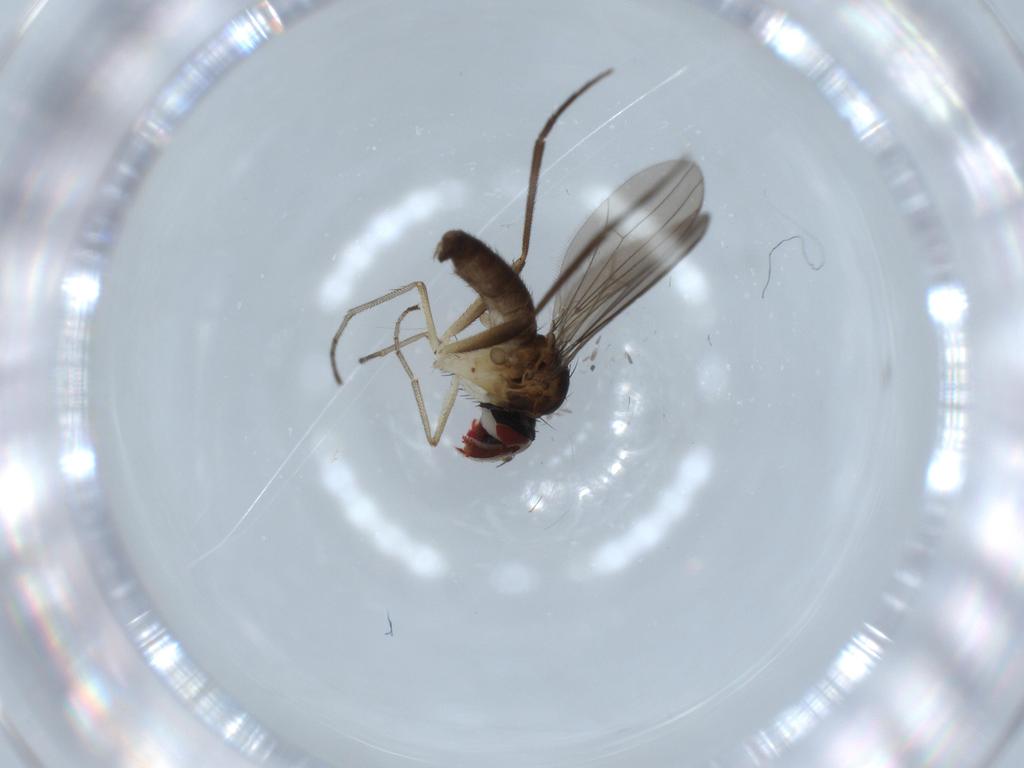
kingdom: Animalia
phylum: Arthropoda
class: Insecta
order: Diptera
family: Dolichopodidae
